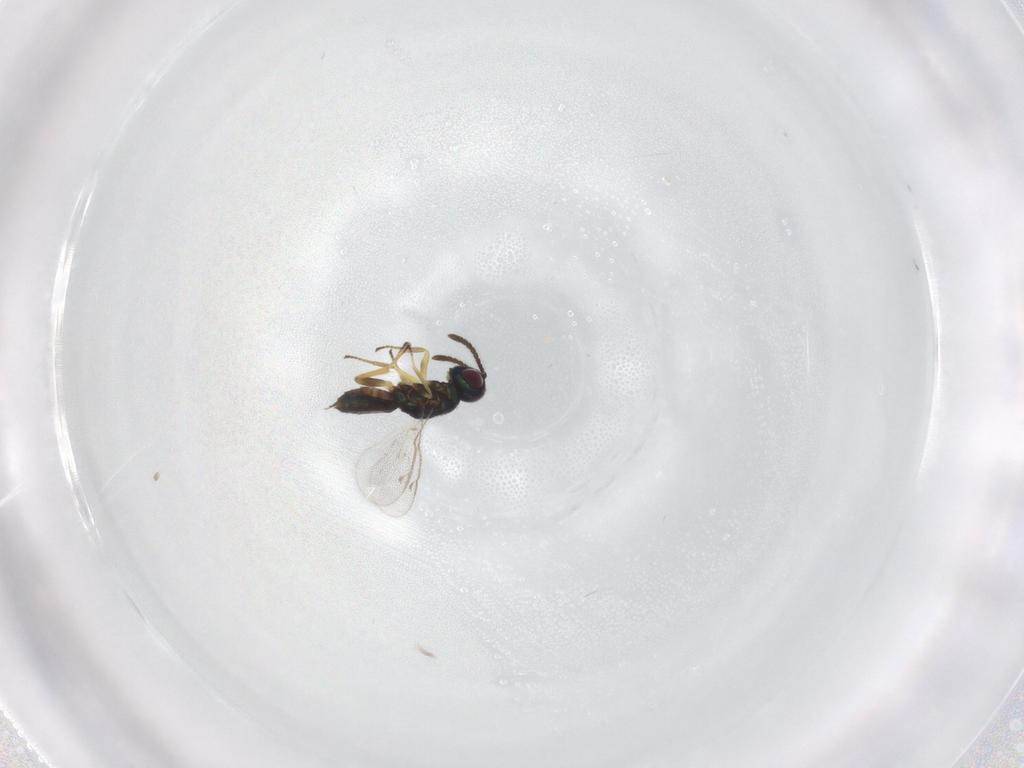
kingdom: Animalia
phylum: Arthropoda
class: Insecta
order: Hymenoptera
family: Eupelmidae
